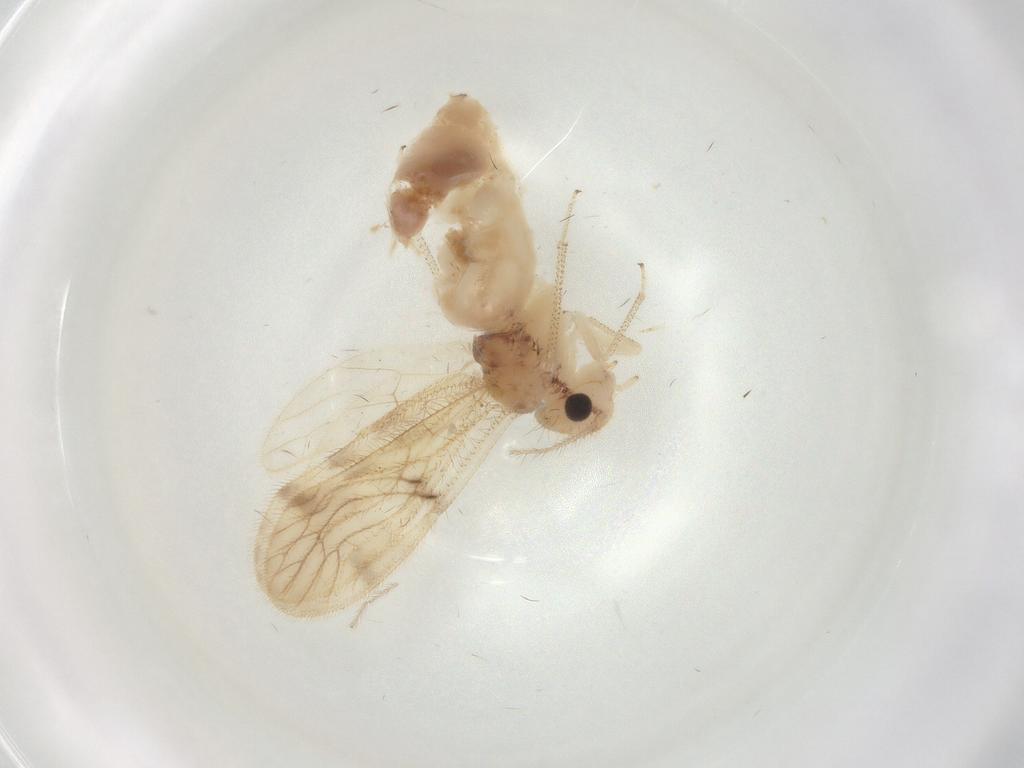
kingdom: Animalia
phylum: Arthropoda
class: Insecta
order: Psocodea
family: Pseudocaeciliidae
